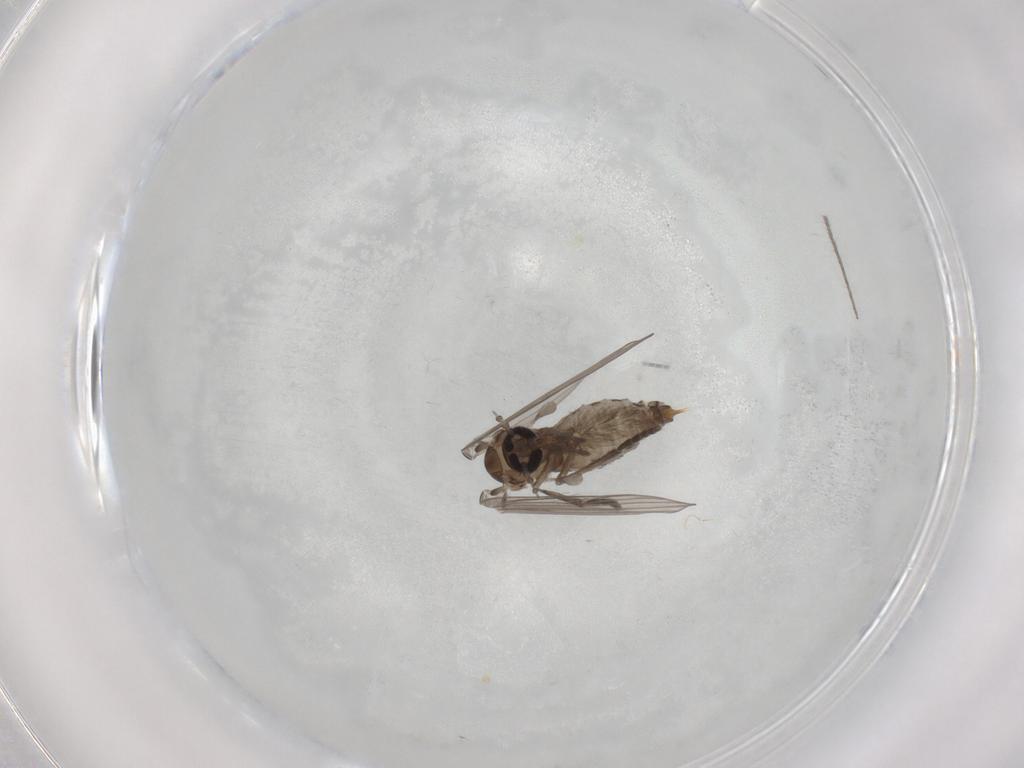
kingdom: Animalia
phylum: Arthropoda
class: Insecta
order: Diptera
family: Psychodidae
